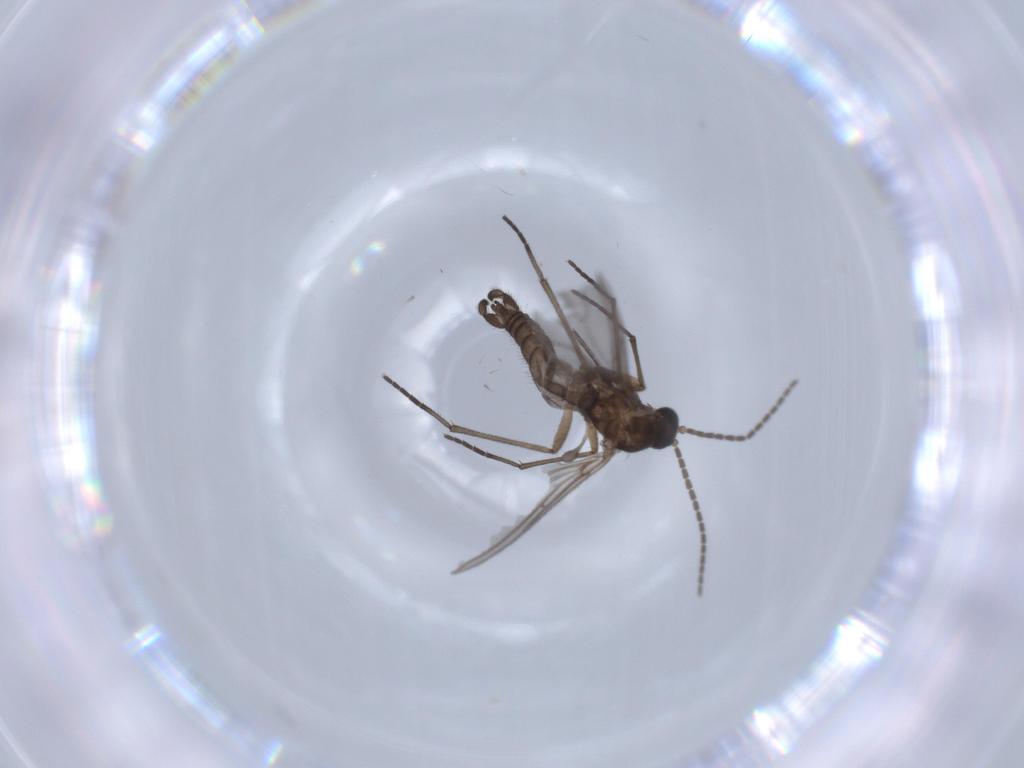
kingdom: Animalia
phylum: Arthropoda
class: Insecta
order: Diptera
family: Sciaridae
